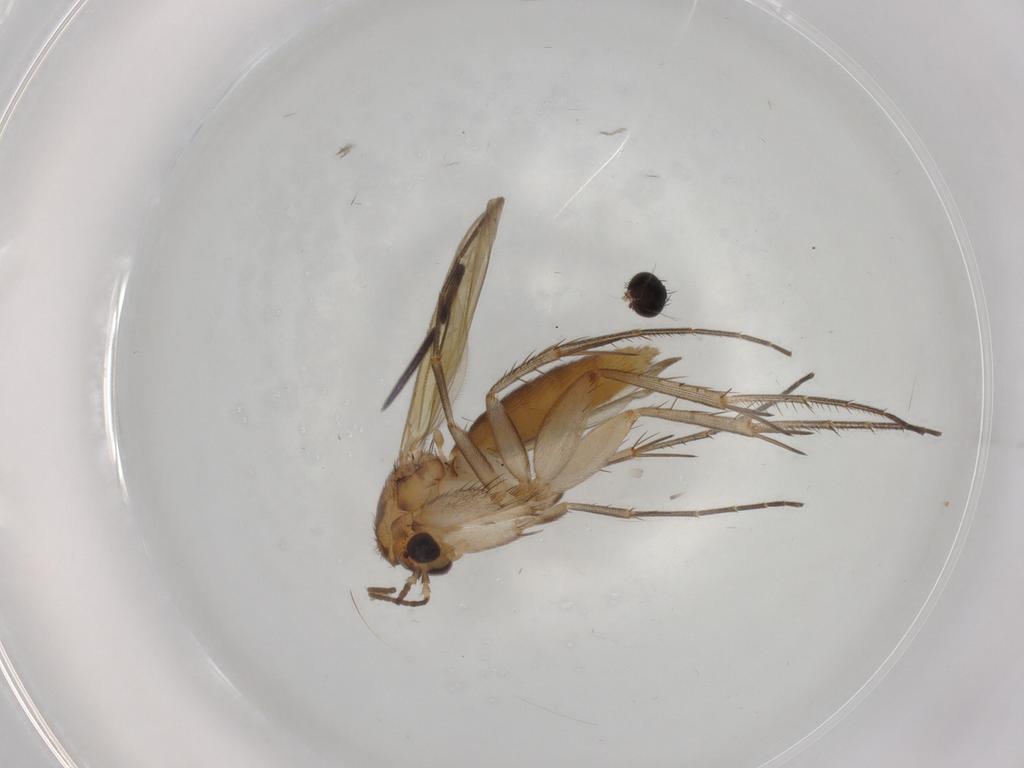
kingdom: Animalia
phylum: Arthropoda
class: Insecta
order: Diptera
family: Mycetophilidae
